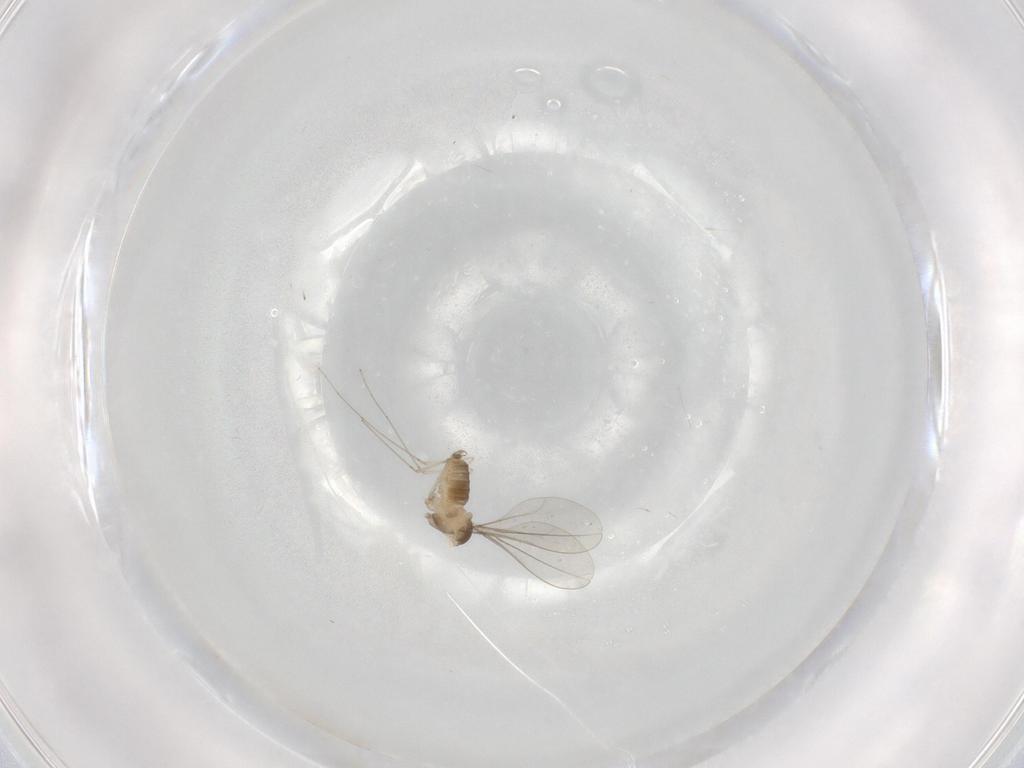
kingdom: Animalia
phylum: Arthropoda
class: Insecta
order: Diptera
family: Cecidomyiidae
